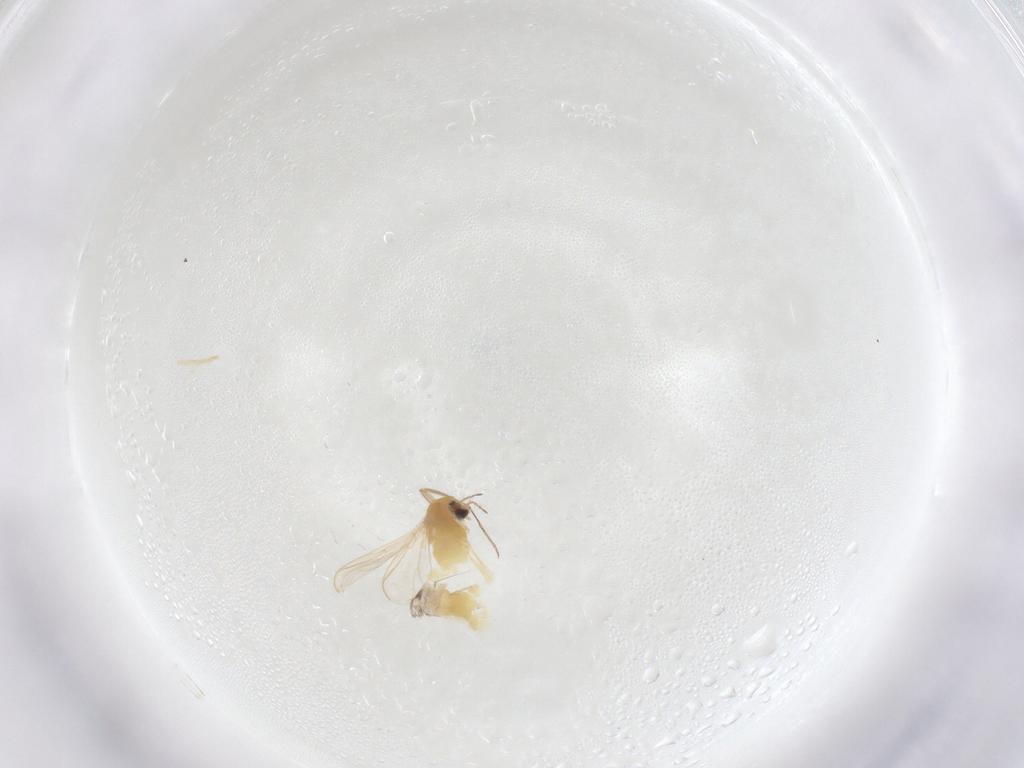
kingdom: Animalia
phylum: Arthropoda
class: Insecta
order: Diptera
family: Chironomidae
